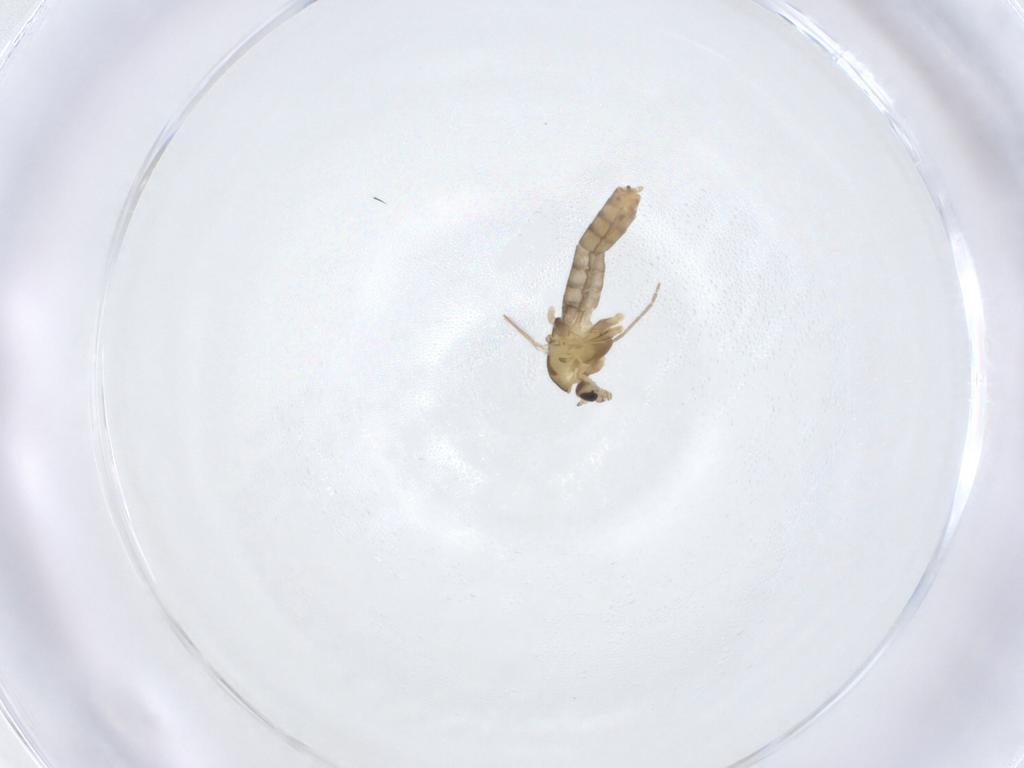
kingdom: Animalia
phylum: Arthropoda
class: Insecta
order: Diptera
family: Chironomidae
